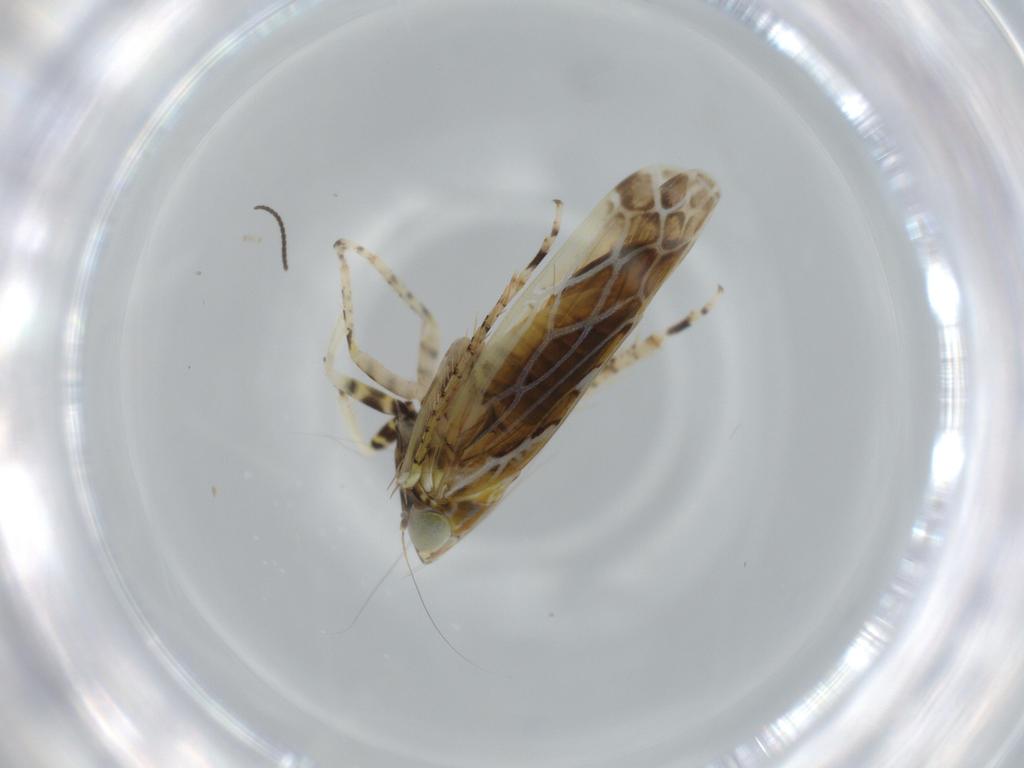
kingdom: Animalia
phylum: Arthropoda
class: Insecta
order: Hemiptera
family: Cicadellidae
